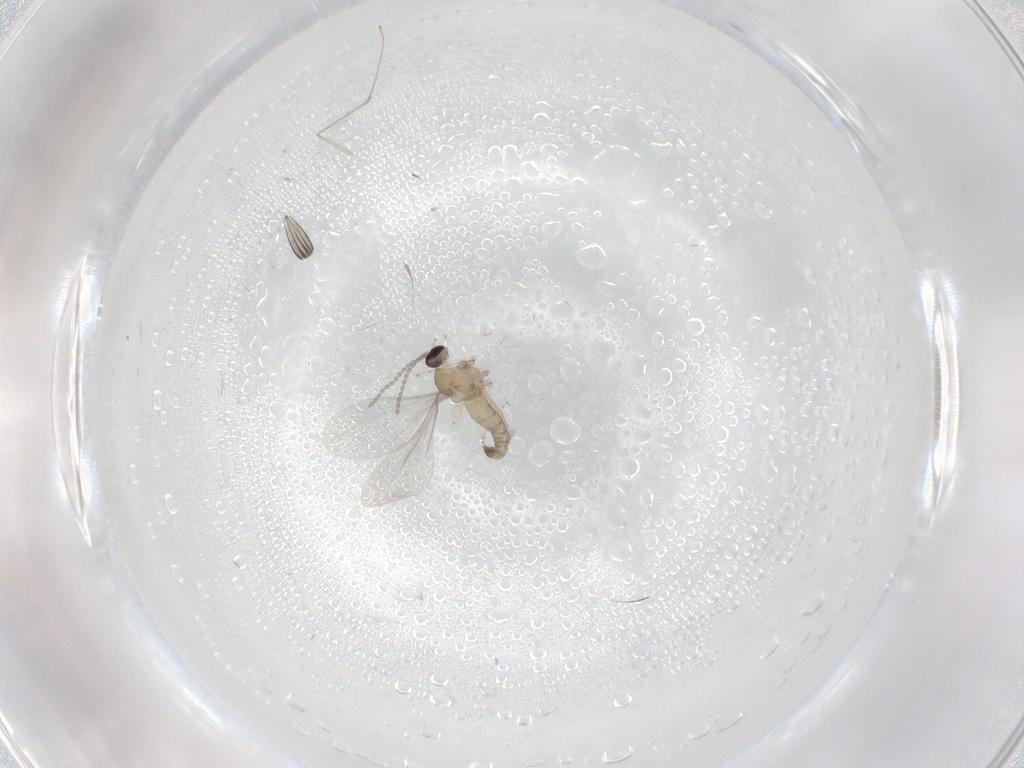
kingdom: Animalia
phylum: Arthropoda
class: Insecta
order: Diptera
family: Cecidomyiidae
